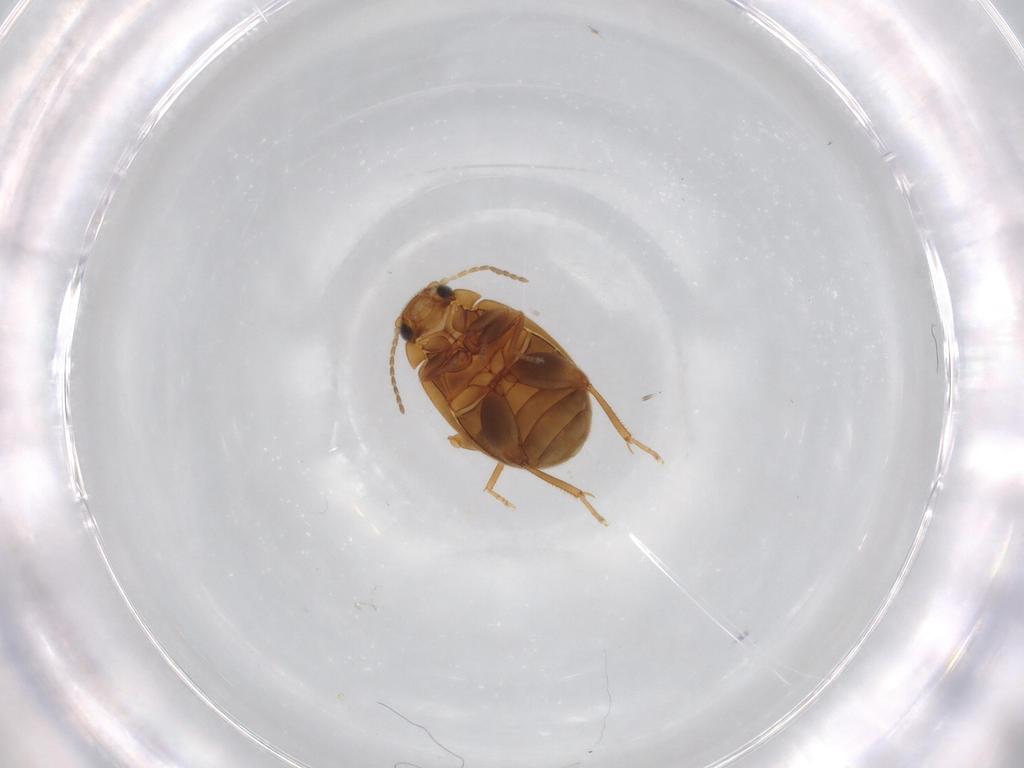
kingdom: Animalia
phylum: Arthropoda
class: Insecta
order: Coleoptera
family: Scirtidae
